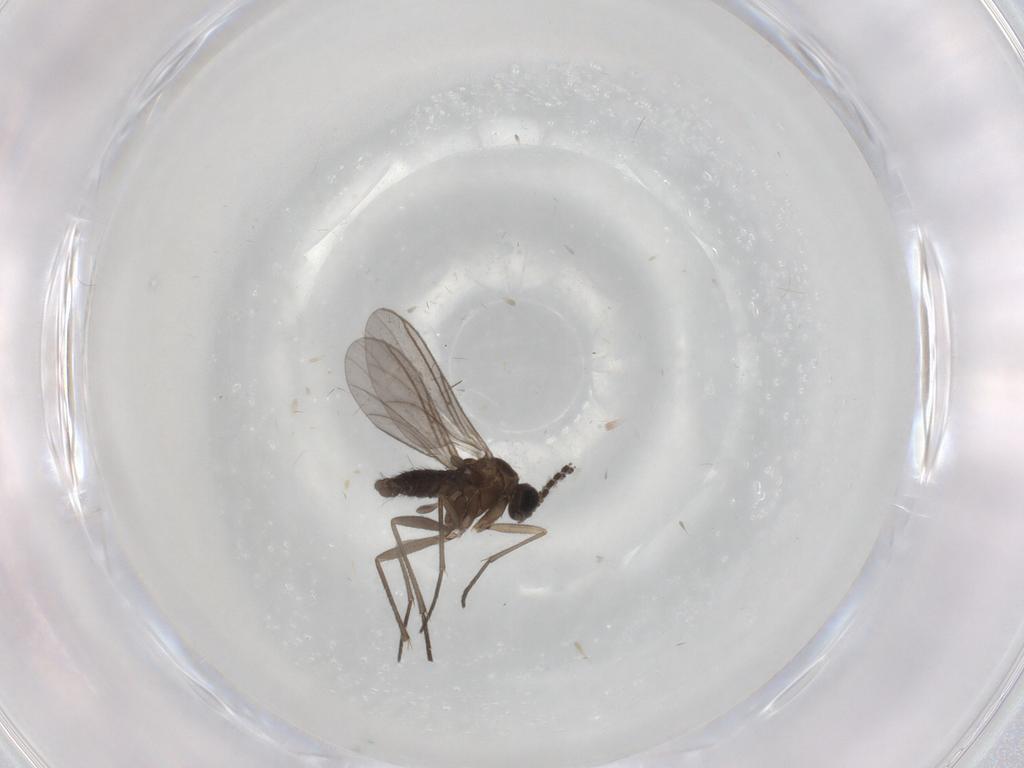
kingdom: Animalia
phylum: Arthropoda
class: Insecta
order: Diptera
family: Sciaridae
